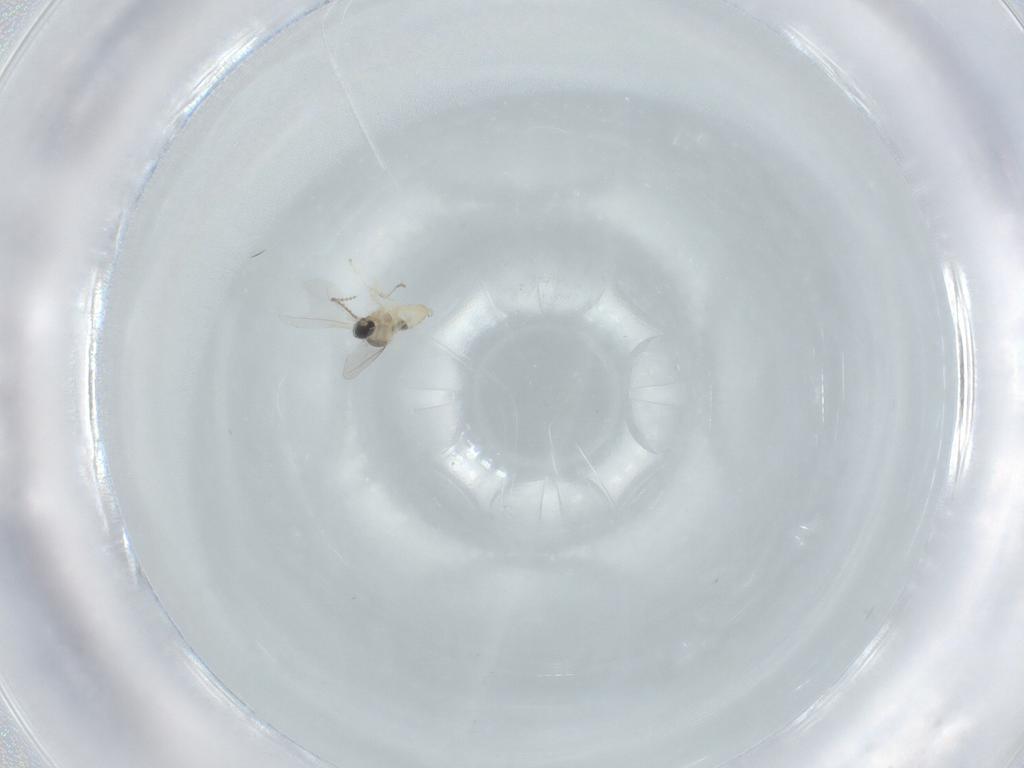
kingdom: Animalia
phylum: Arthropoda
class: Insecta
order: Diptera
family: Cecidomyiidae
